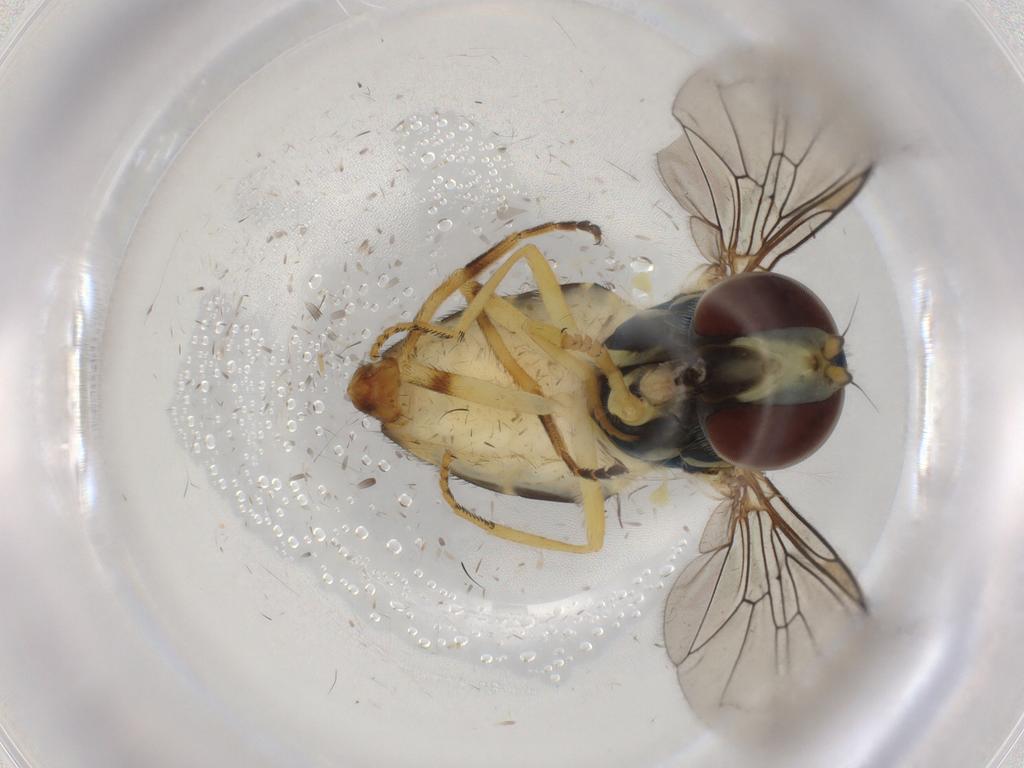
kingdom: Animalia
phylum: Arthropoda
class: Insecta
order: Diptera
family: Syrphidae
